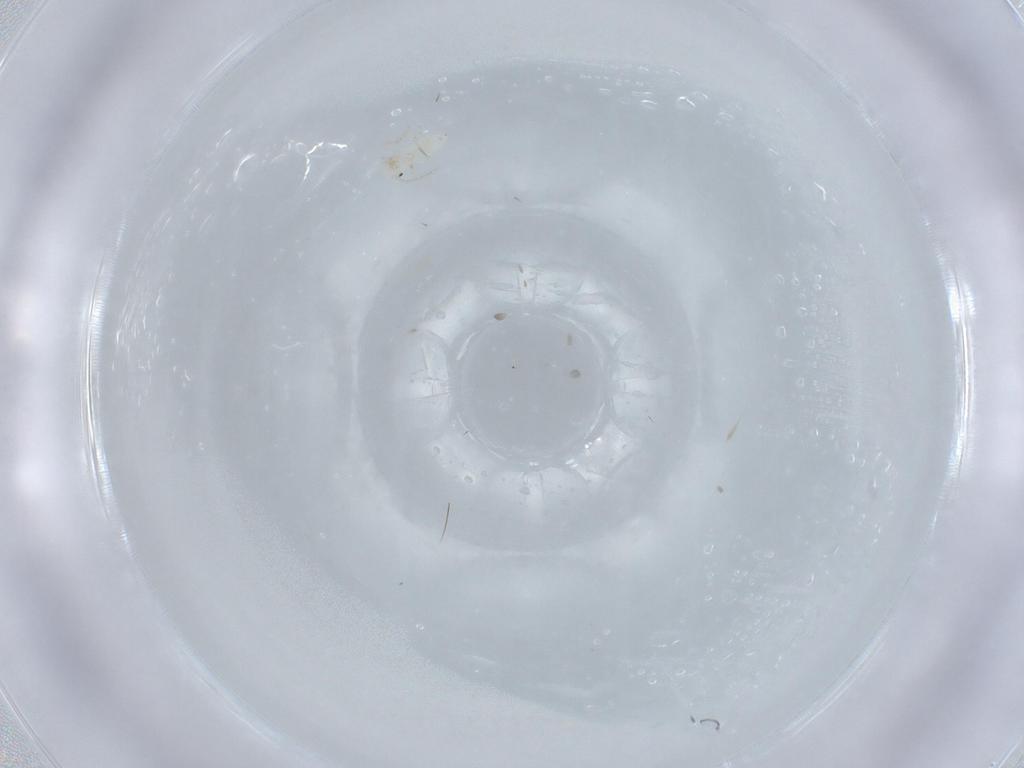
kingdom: Animalia
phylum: Arthropoda
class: Insecta
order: Psocodea
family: Caeciliusidae
